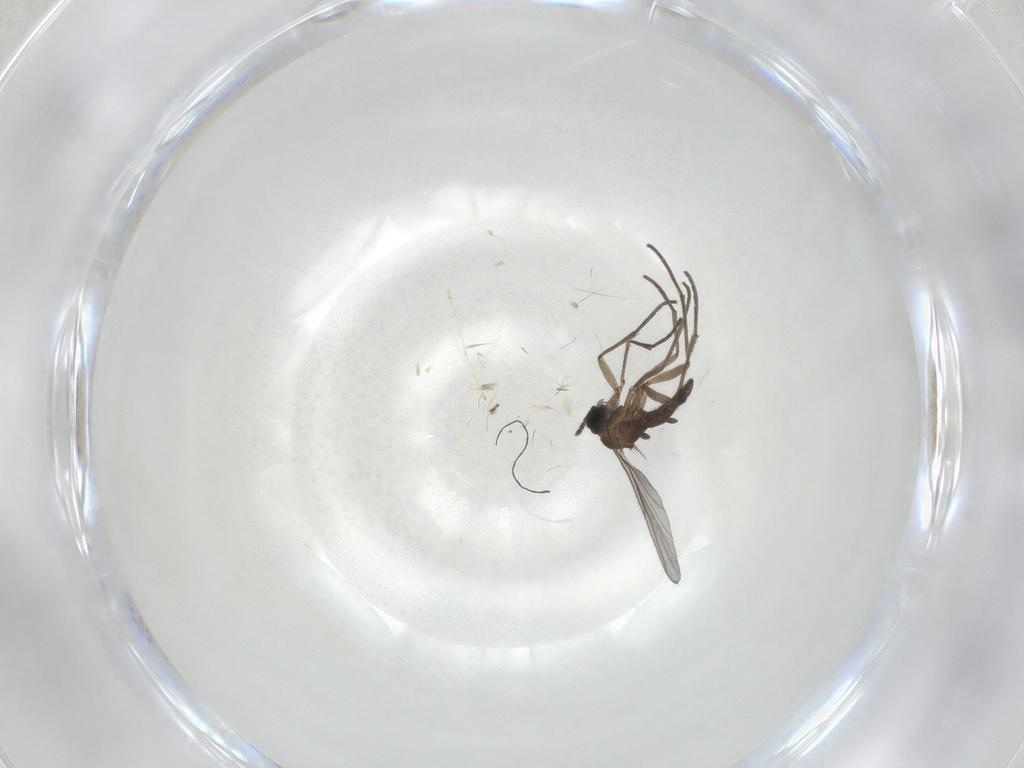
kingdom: Animalia
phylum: Arthropoda
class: Insecta
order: Diptera
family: Sciaridae
